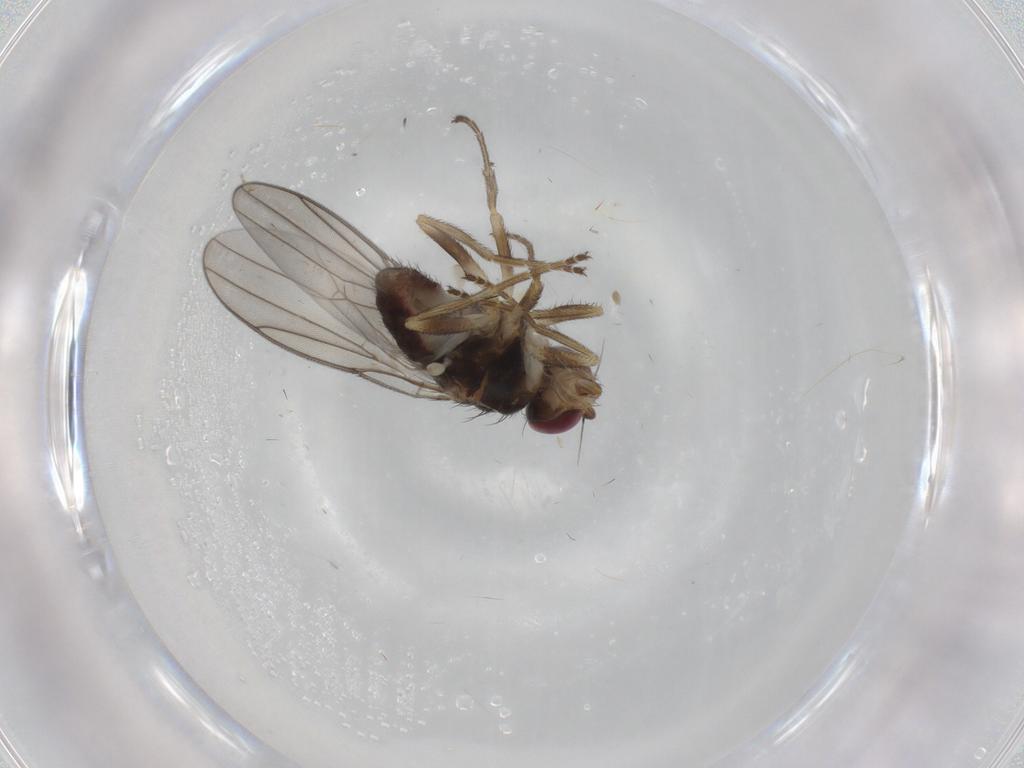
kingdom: Animalia
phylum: Arthropoda
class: Insecta
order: Diptera
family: Chloropidae
